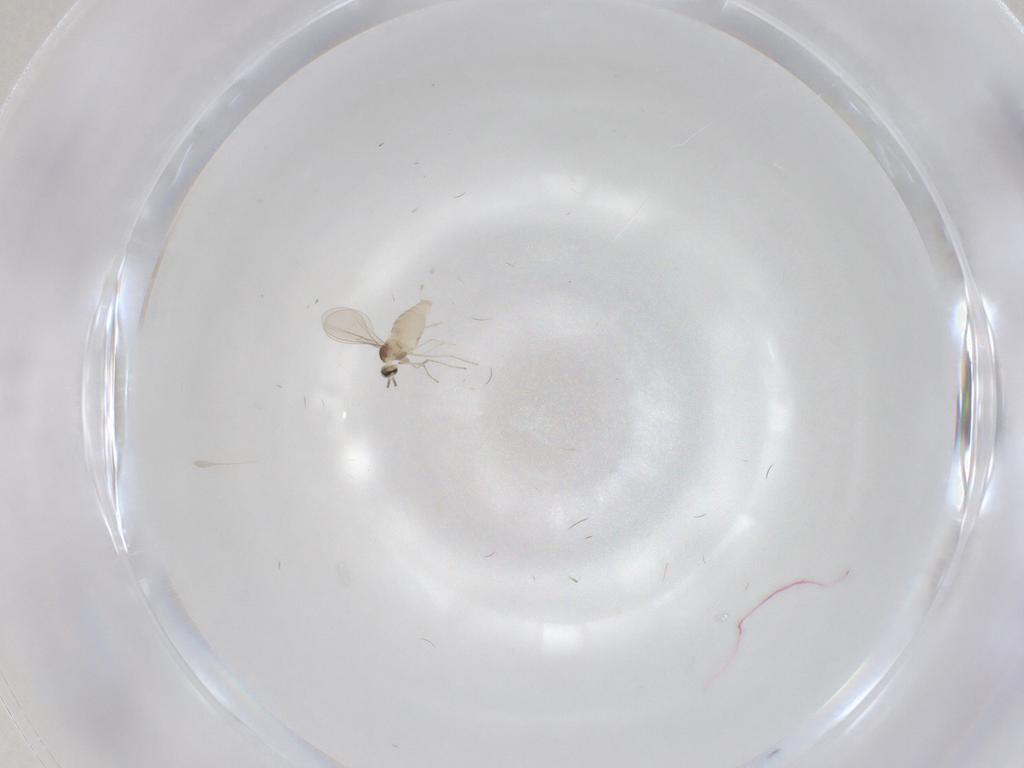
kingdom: Animalia
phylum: Arthropoda
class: Insecta
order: Diptera
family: Cecidomyiidae
